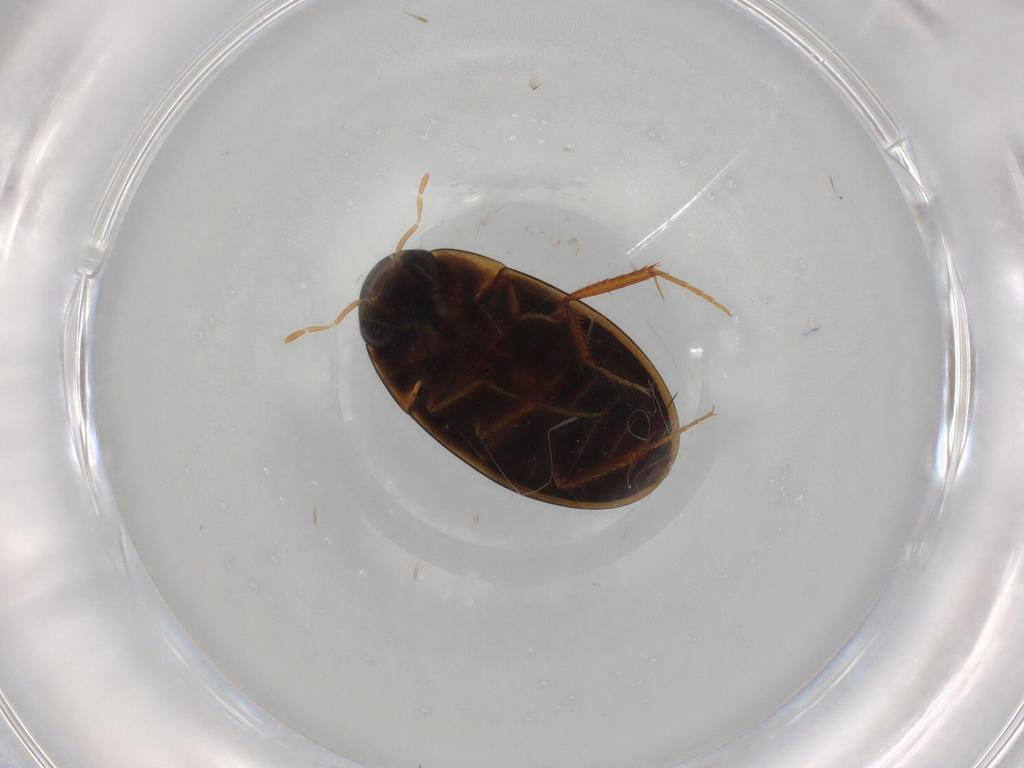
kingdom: Animalia
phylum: Arthropoda
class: Insecta
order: Coleoptera
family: Hydrophilidae
